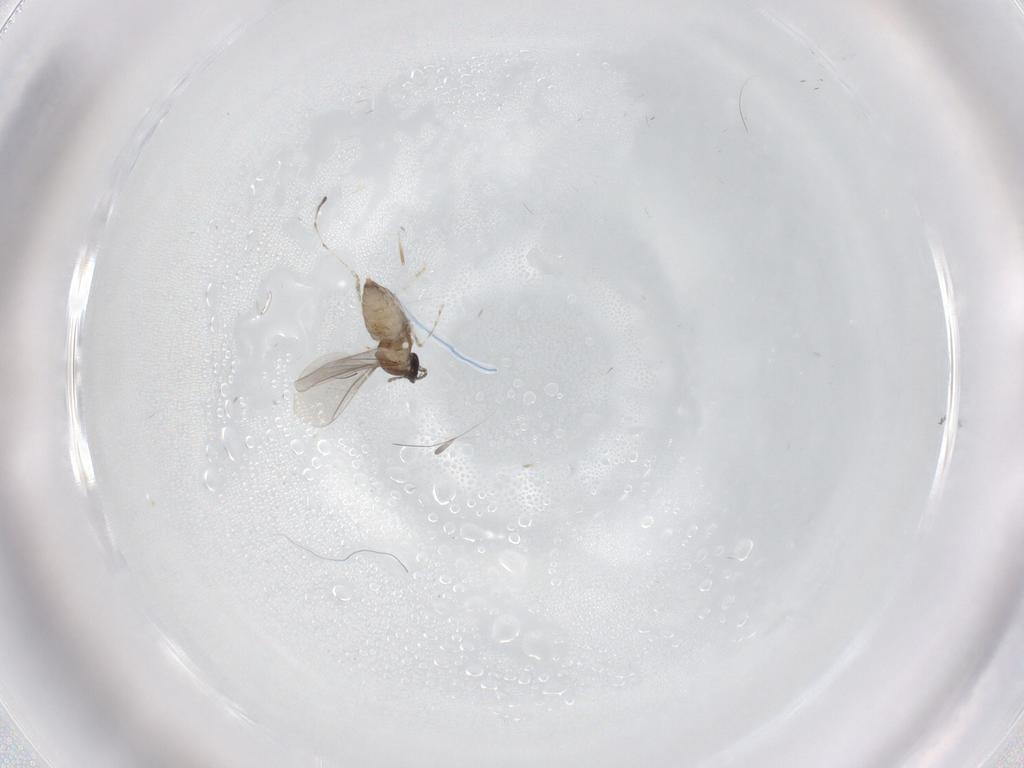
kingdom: Animalia
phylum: Arthropoda
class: Insecta
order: Diptera
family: Cecidomyiidae
